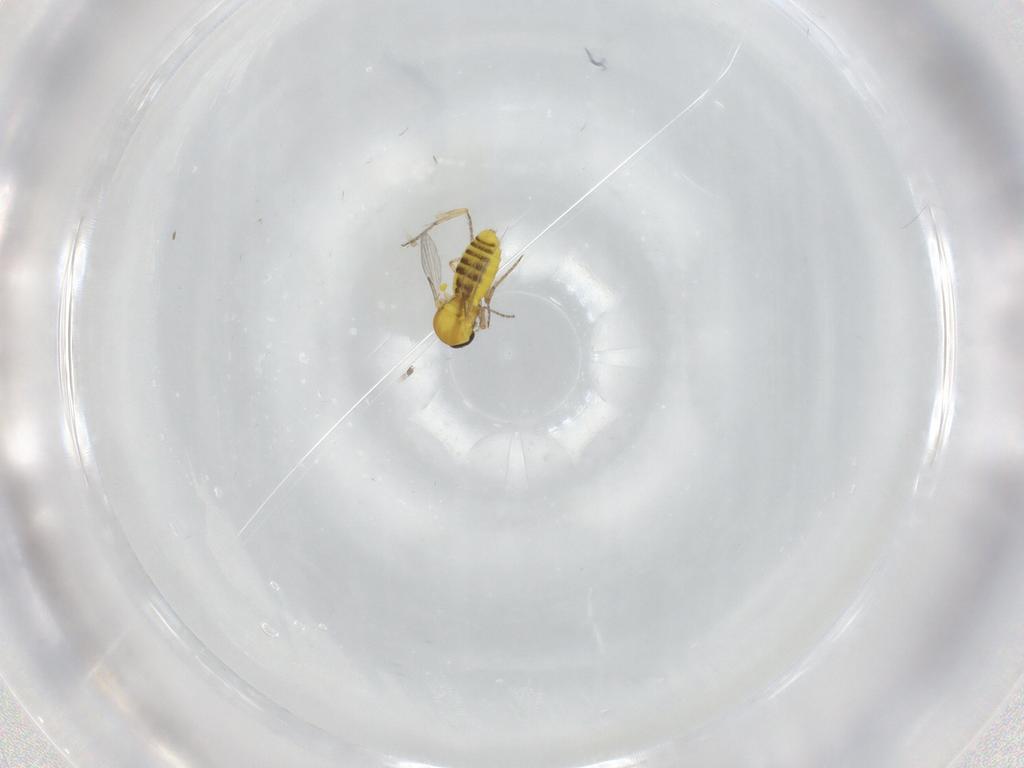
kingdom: Animalia
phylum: Arthropoda
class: Insecta
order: Diptera
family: Ceratopogonidae
